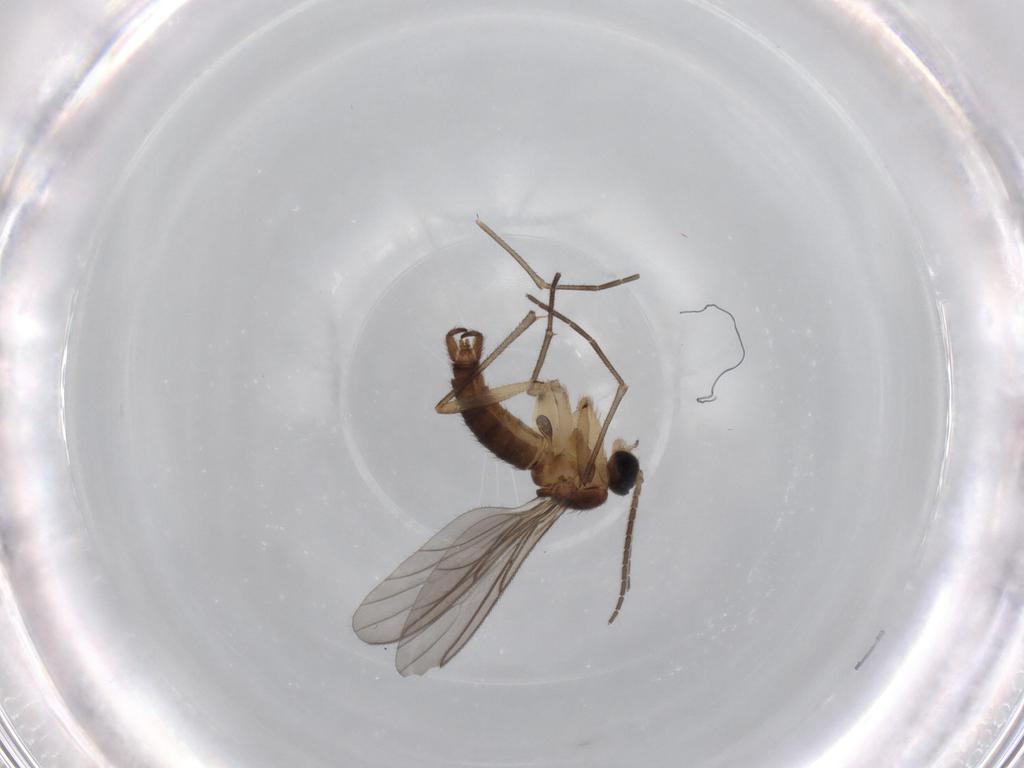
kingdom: Animalia
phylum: Arthropoda
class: Insecta
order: Diptera
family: Sciaridae
